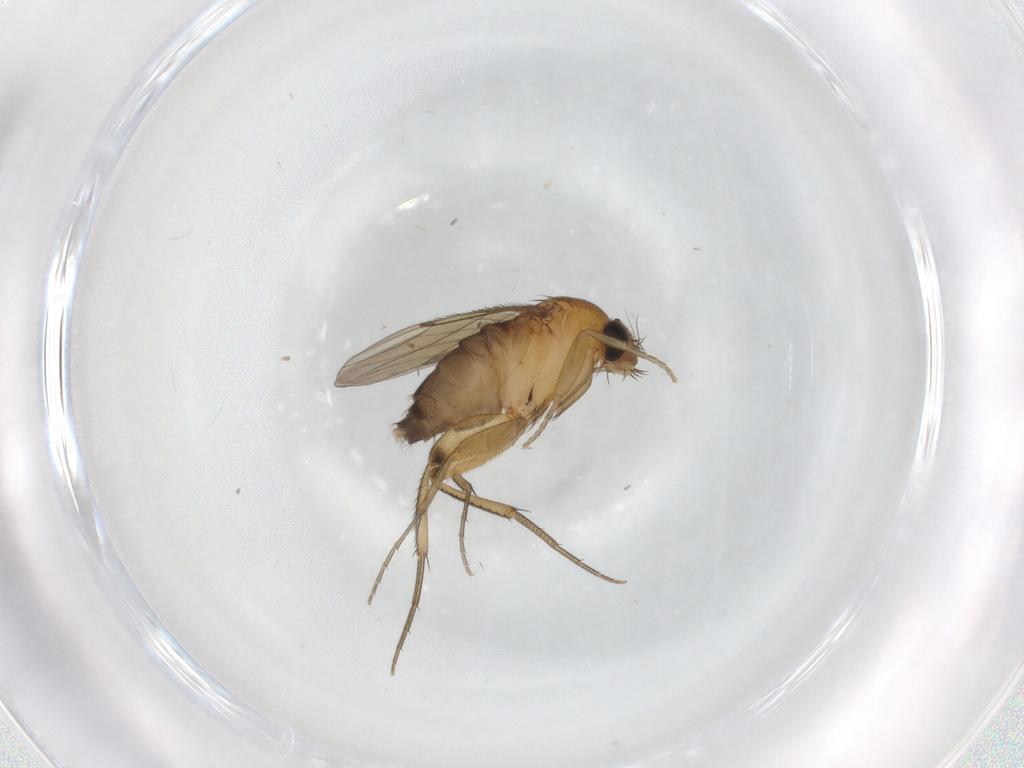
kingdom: Animalia
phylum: Arthropoda
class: Insecta
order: Diptera
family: Phoridae
